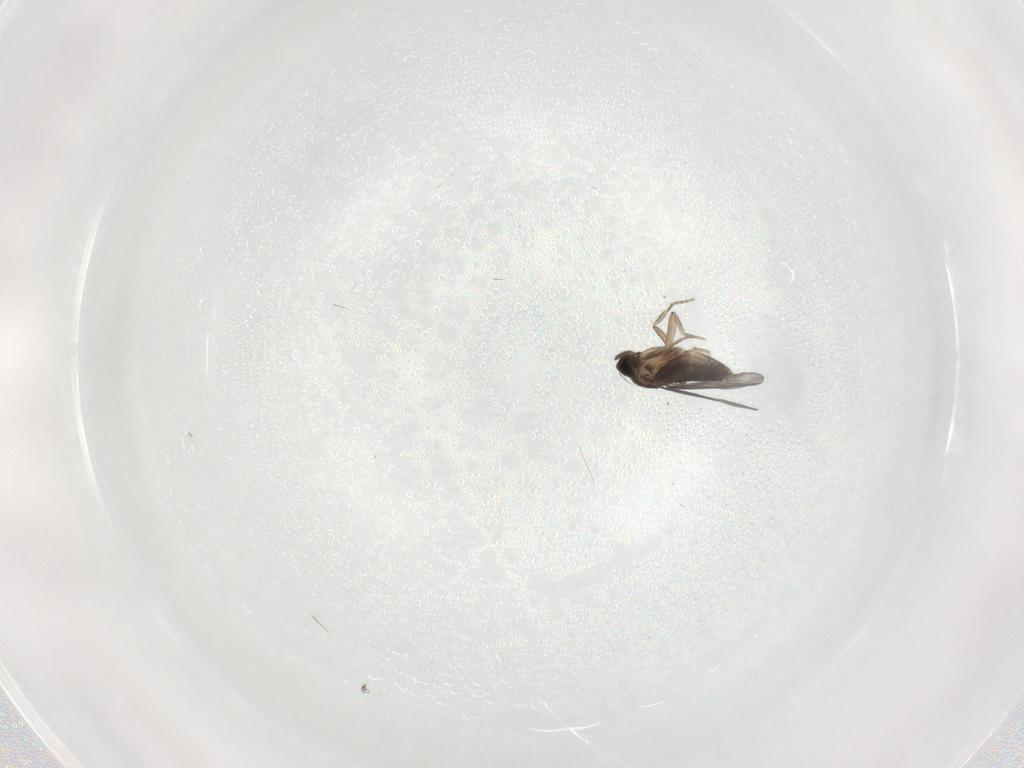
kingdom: Animalia
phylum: Arthropoda
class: Insecta
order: Diptera
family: Cecidomyiidae
